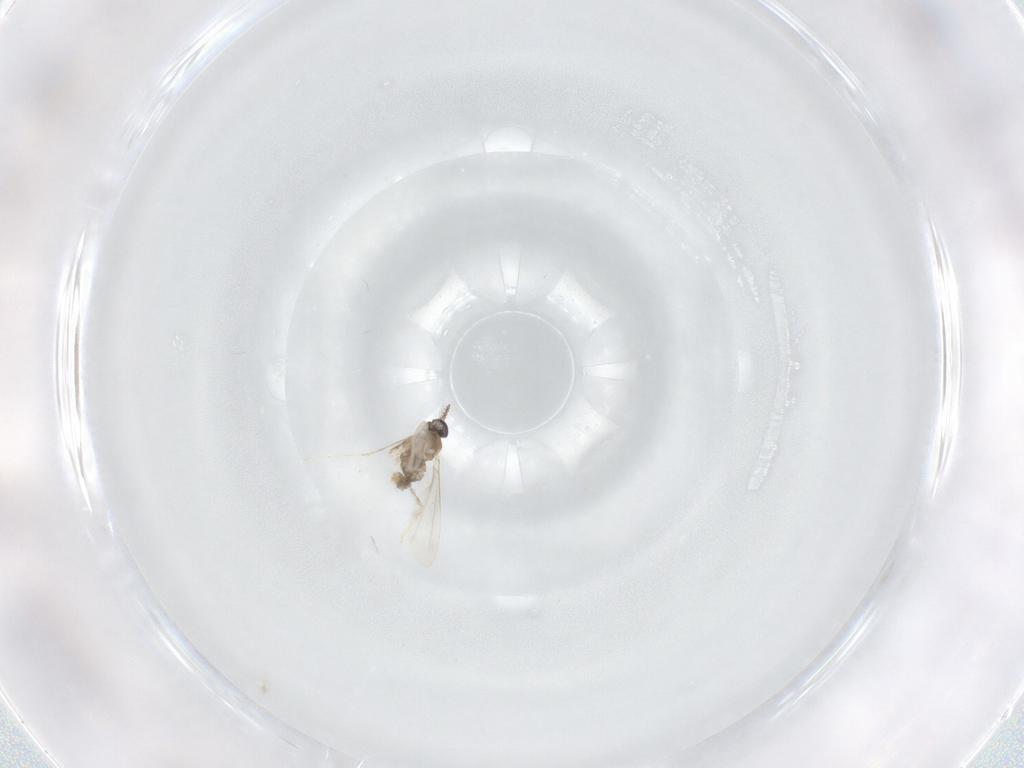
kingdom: Animalia
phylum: Arthropoda
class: Insecta
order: Diptera
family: Cecidomyiidae
